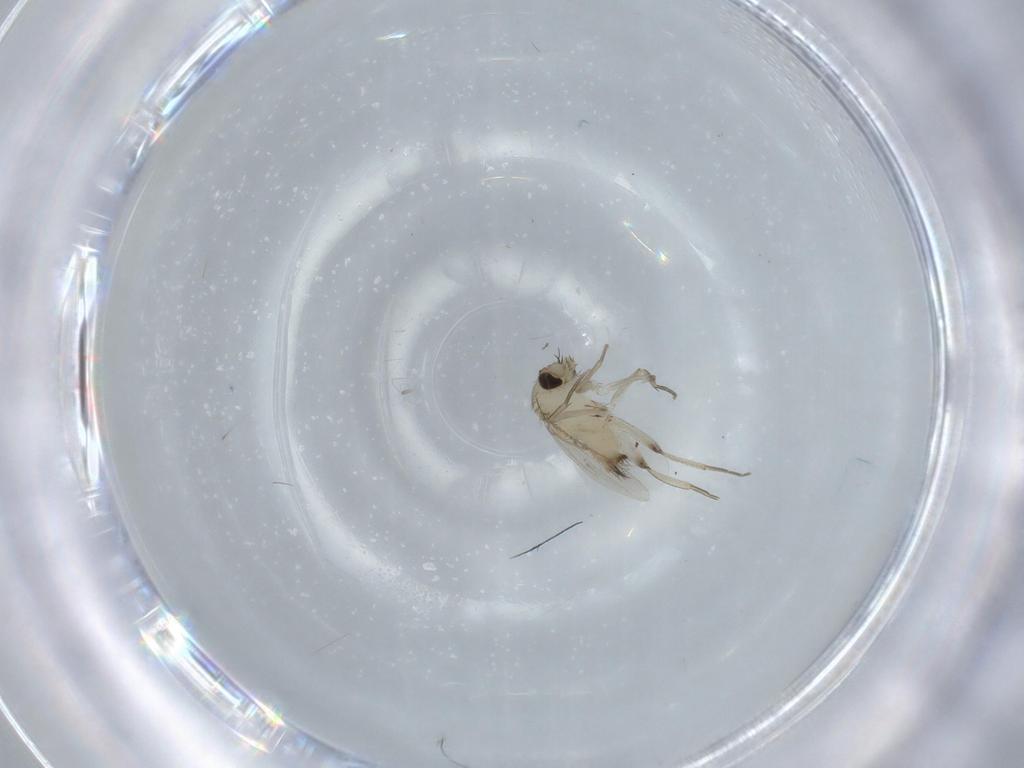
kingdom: Animalia
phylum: Arthropoda
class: Insecta
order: Diptera
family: Phoridae
